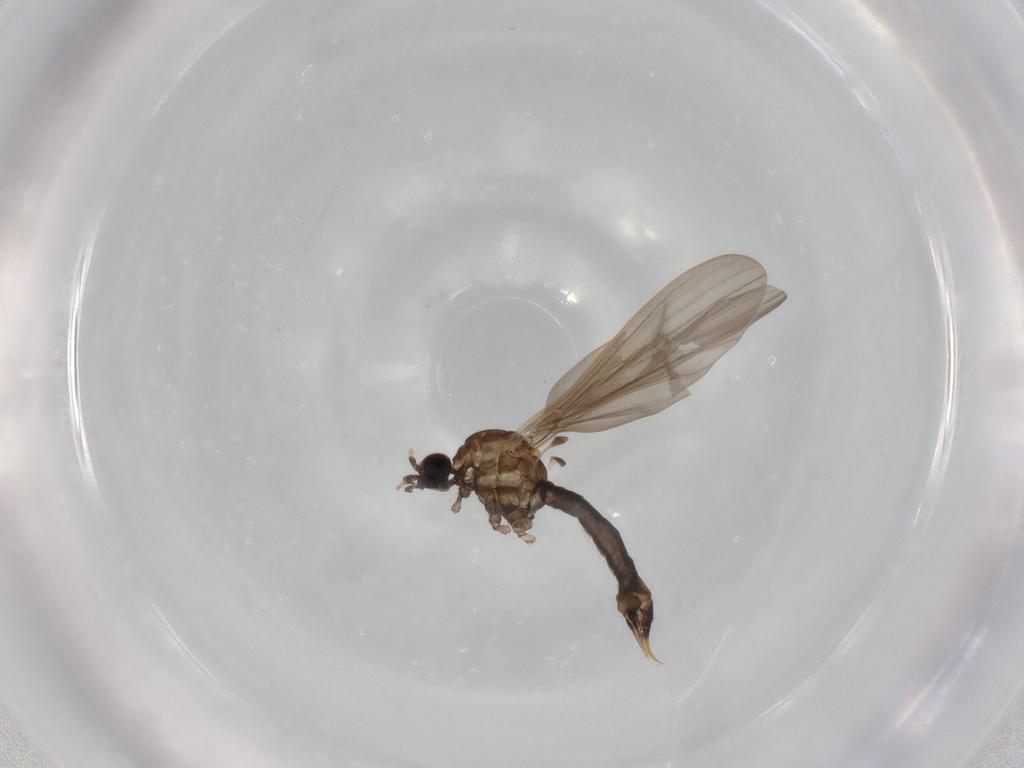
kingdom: Animalia
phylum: Arthropoda
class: Insecta
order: Diptera
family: Limoniidae
